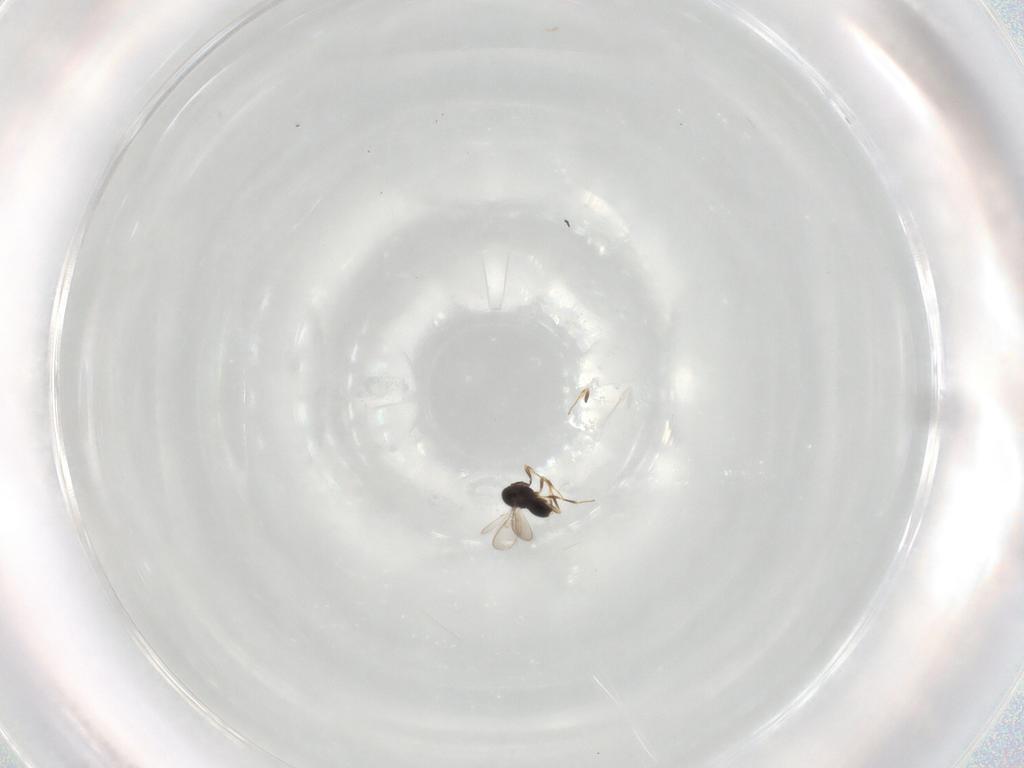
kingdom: Animalia
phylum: Arthropoda
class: Insecta
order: Hymenoptera
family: Scelionidae
